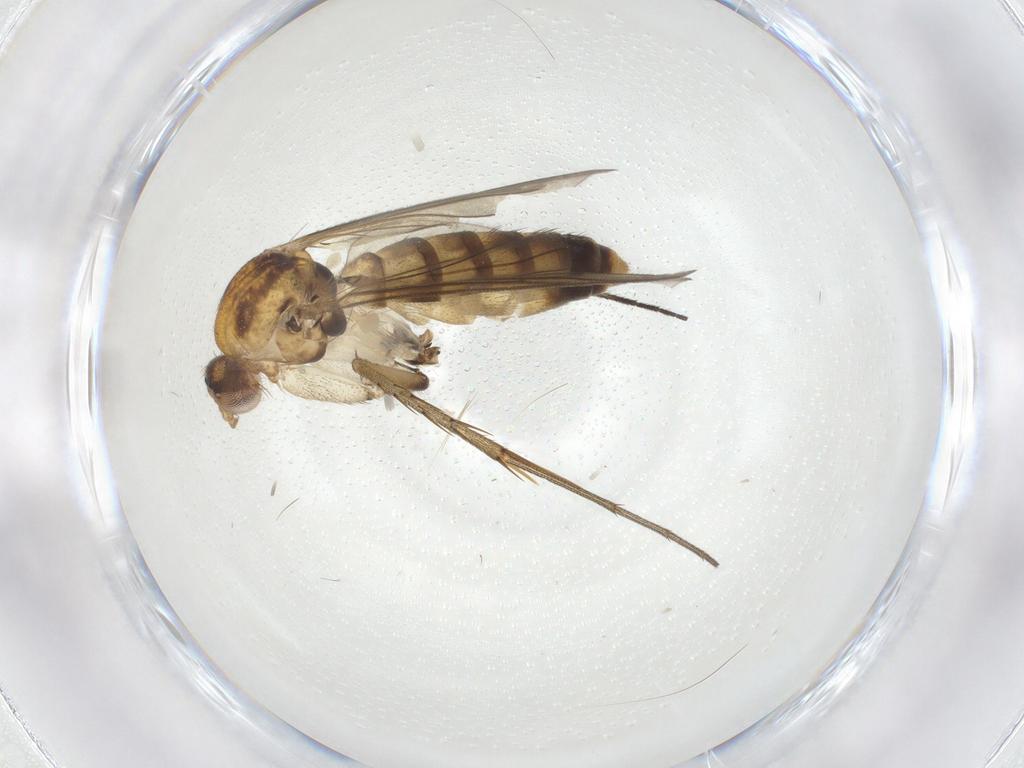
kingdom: Animalia
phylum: Arthropoda
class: Insecta
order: Diptera
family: Mycetophilidae
